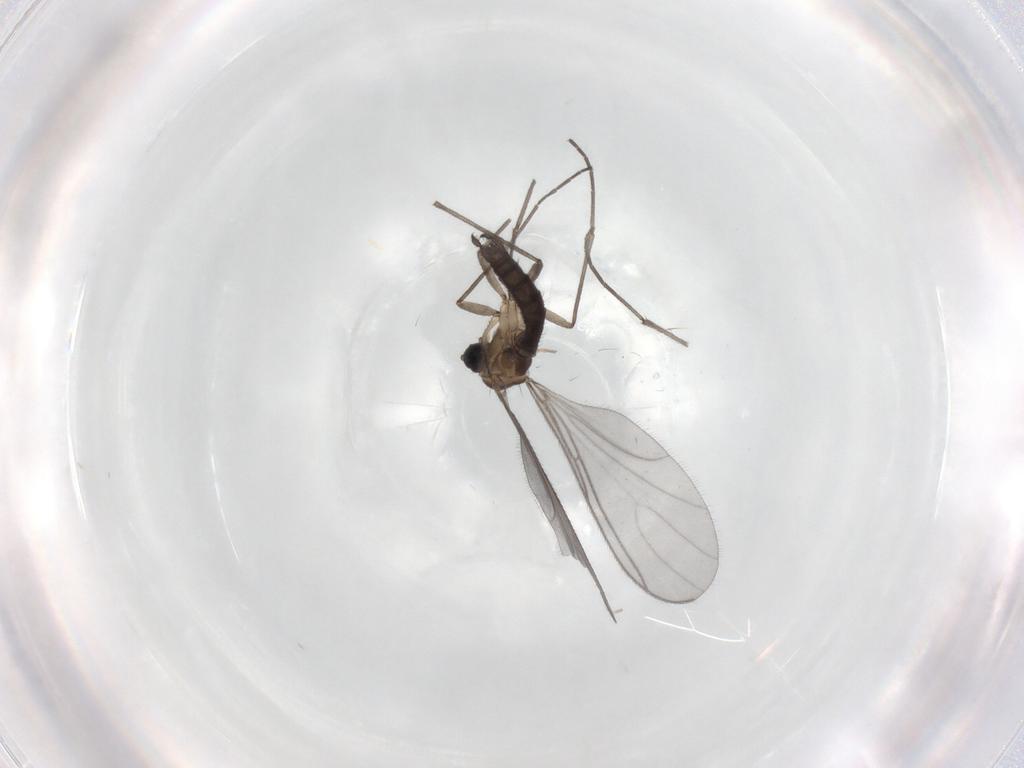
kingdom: Animalia
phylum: Arthropoda
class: Insecta
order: Diptera
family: Sciaridae
